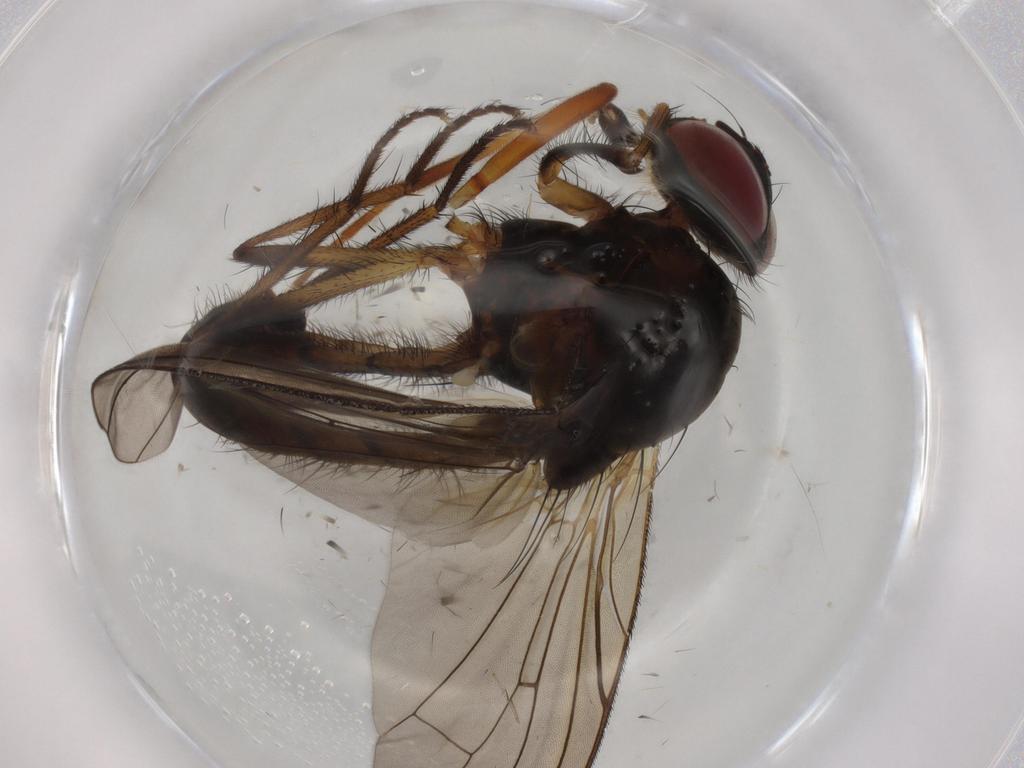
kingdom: Animalia
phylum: Arthropoda
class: Insecta
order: Diptera
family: Anthomyiidae
